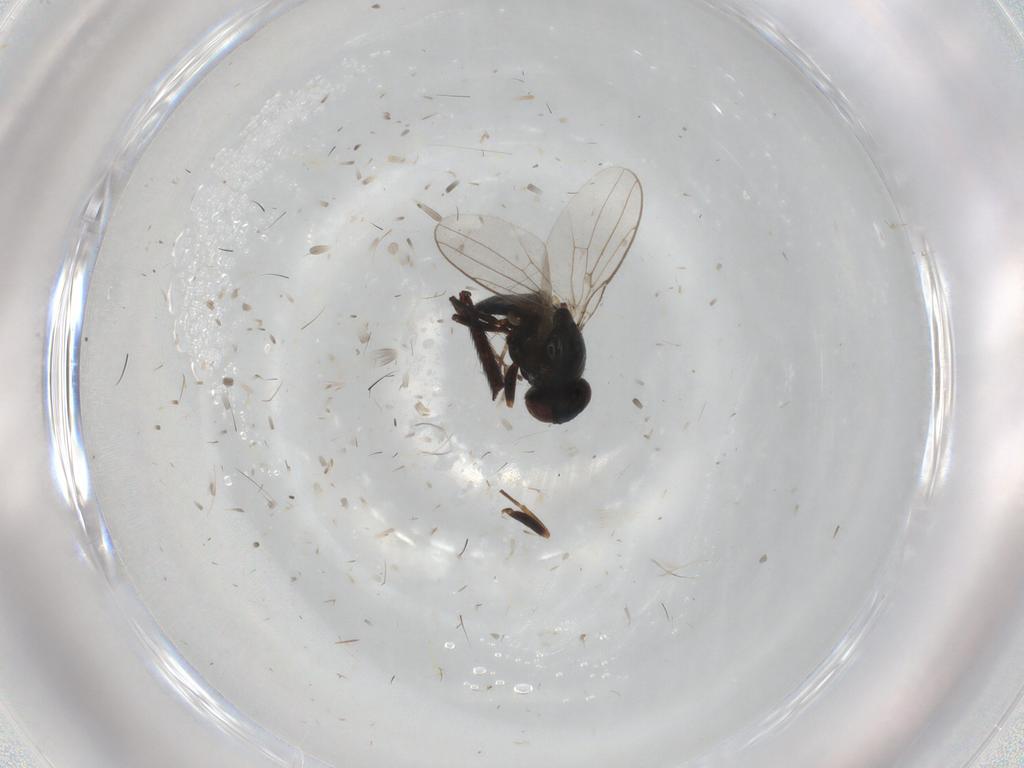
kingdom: Animalia
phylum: Arthropoda
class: Insecta
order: Diptera
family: Chloropidae
